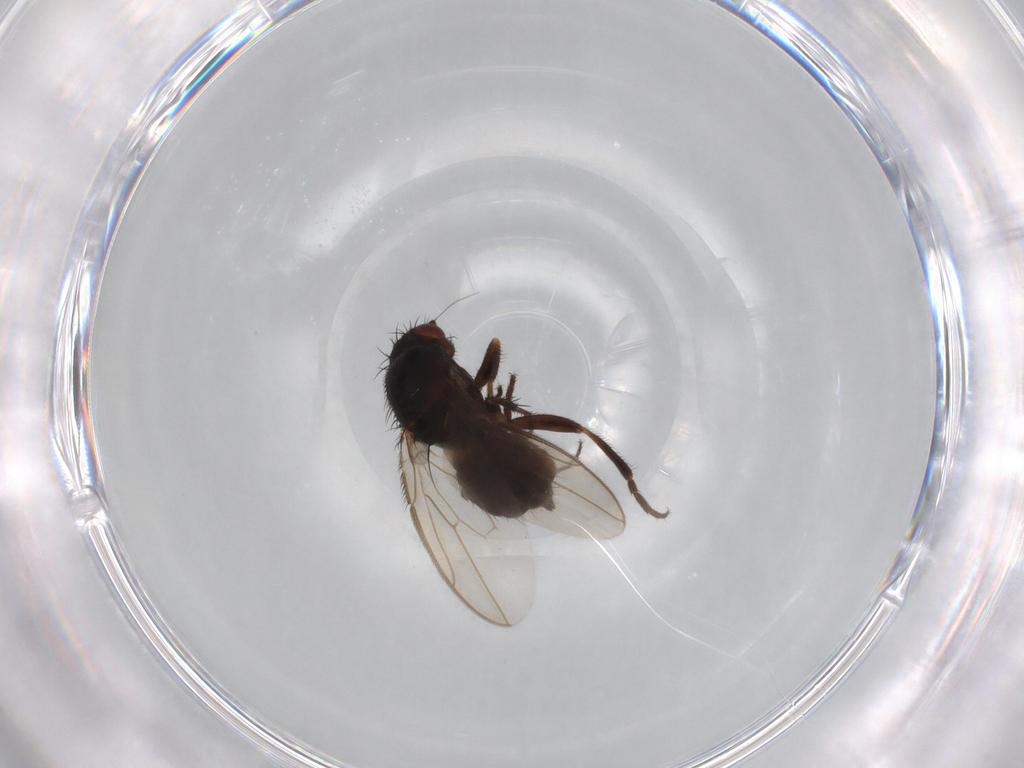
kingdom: Animalia
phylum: Arthropoda
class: Insecta
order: Diptera
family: Sphaeroceridae
